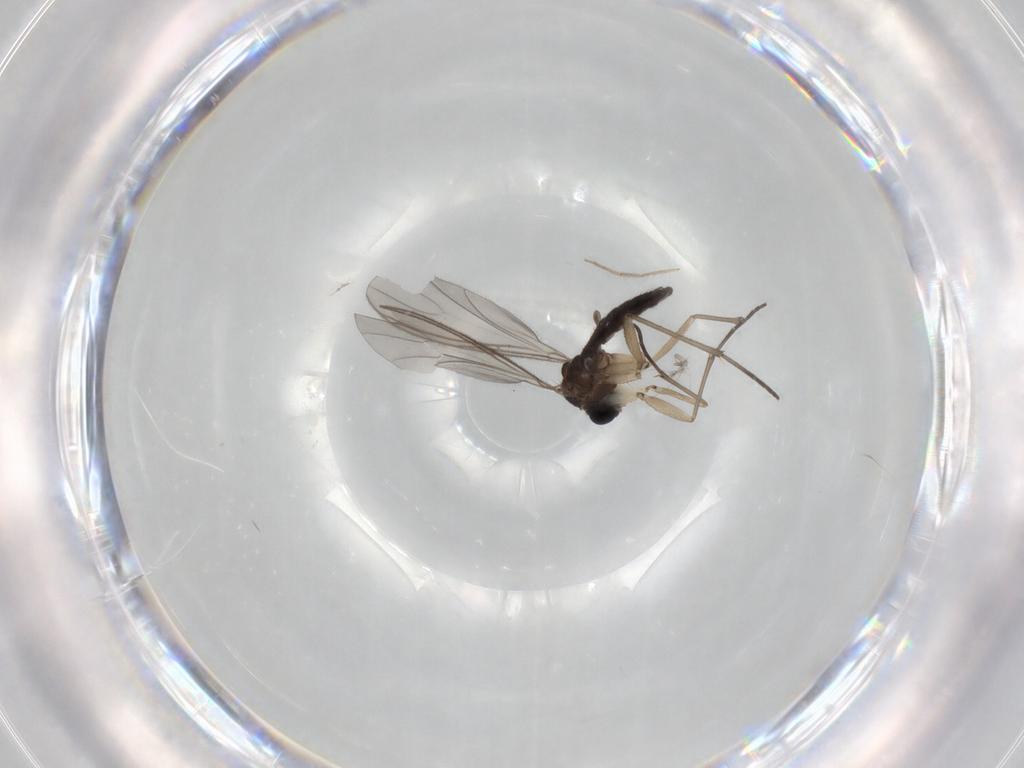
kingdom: Animalia
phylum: Arthropoda
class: Insecta
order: Diptera
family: Sciaridae
